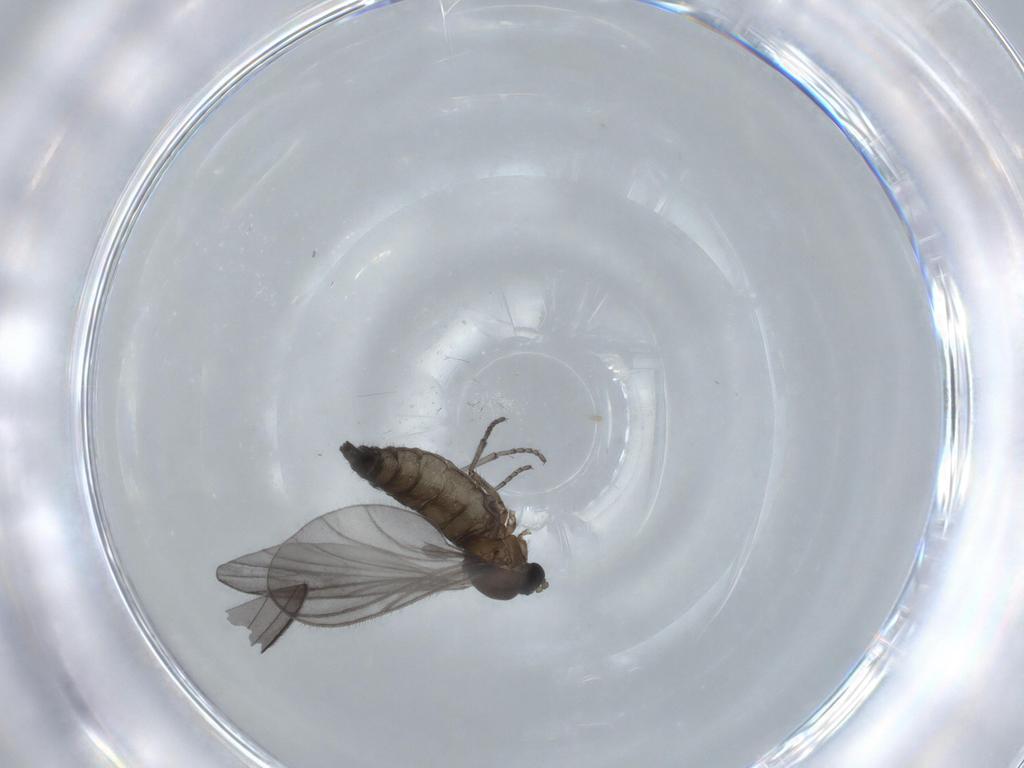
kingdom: Animalia
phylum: Arthropoda
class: Insecta
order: Diptera
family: Sciaridae
